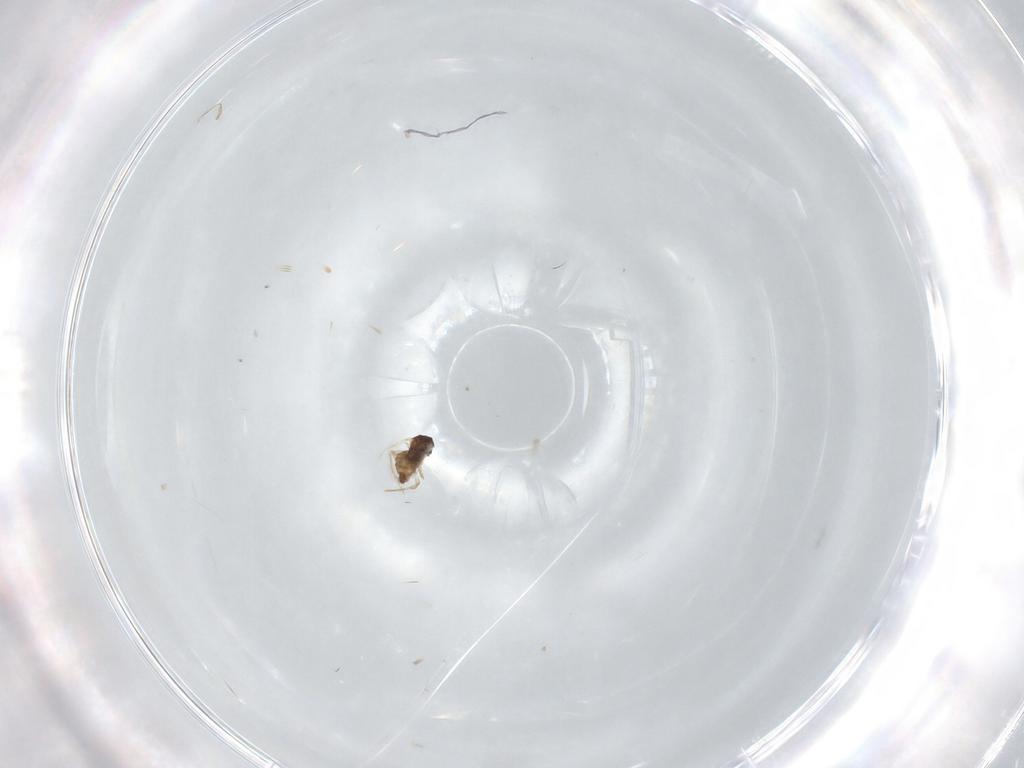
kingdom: Animalia
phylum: Arthropoda
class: Insecta
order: Diptera
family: Cecidomyiidae
